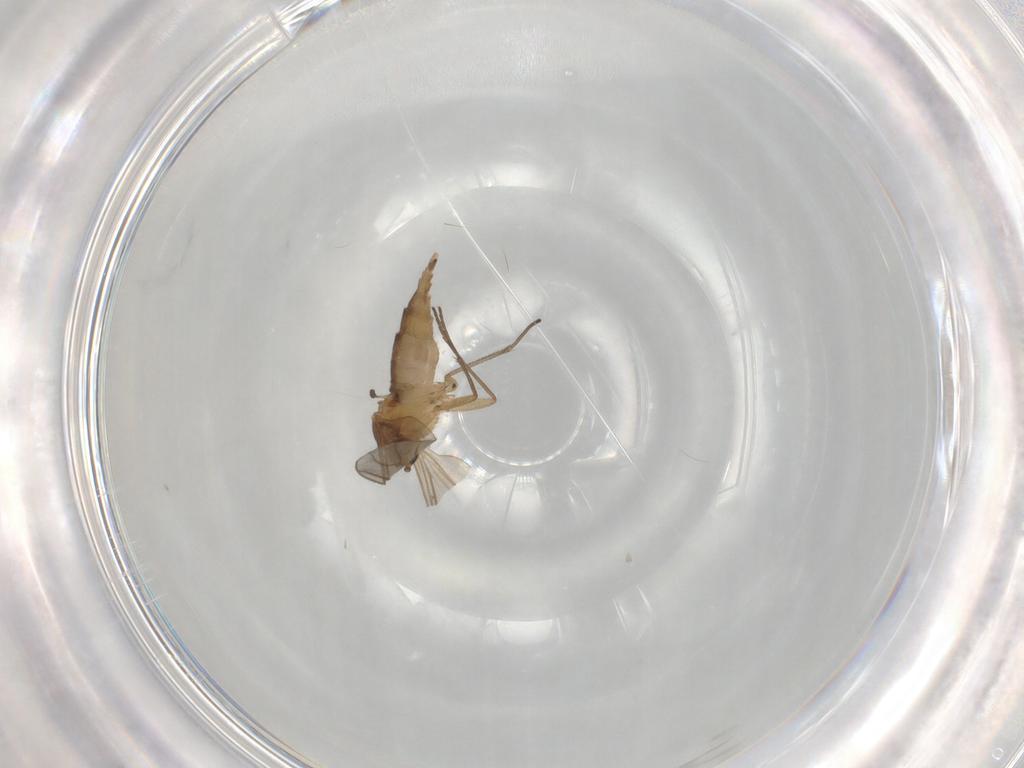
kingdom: Animalia
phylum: Arthropoda
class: Insecta
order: Diptera
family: Sciaridae
